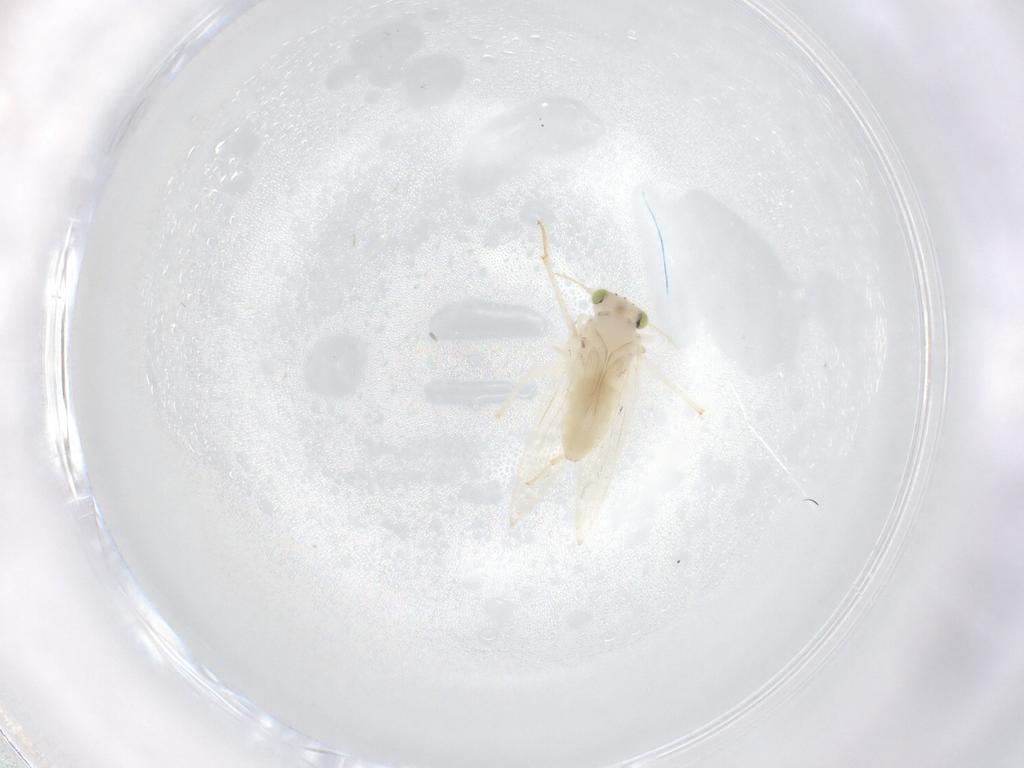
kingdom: Animalia
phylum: Arthropoda
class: Insecta
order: Psocodea
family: Lepidopsocidae
